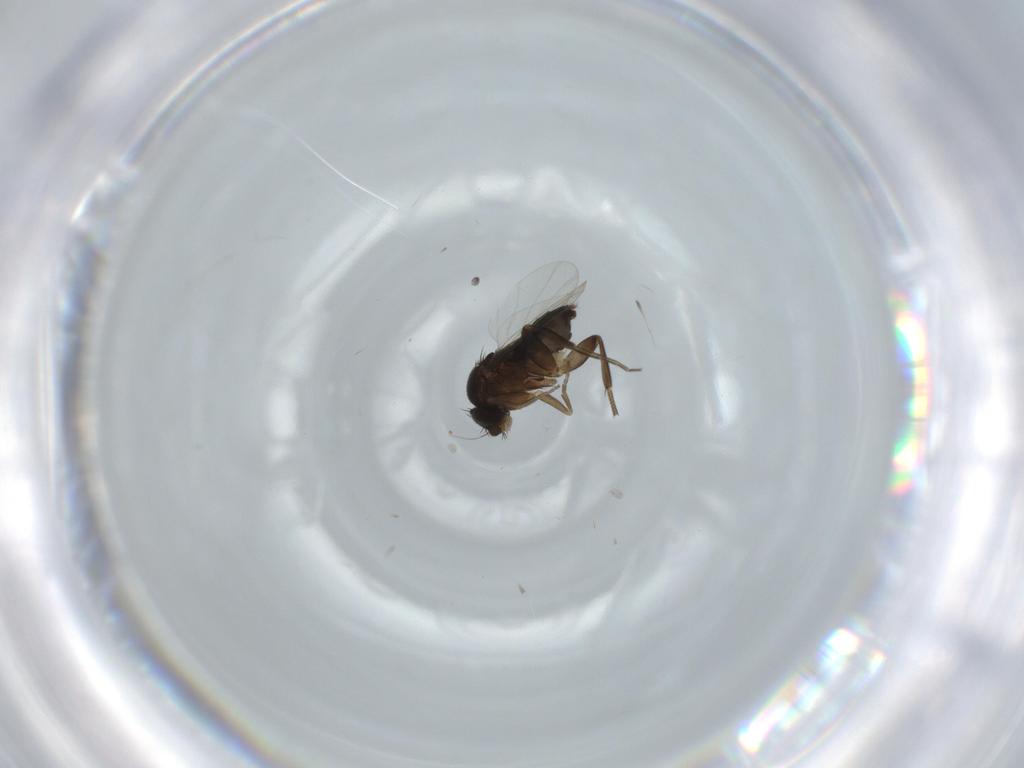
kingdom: Animalia
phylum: Arthropoda
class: Insecta
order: Diptera
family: Phoridae
